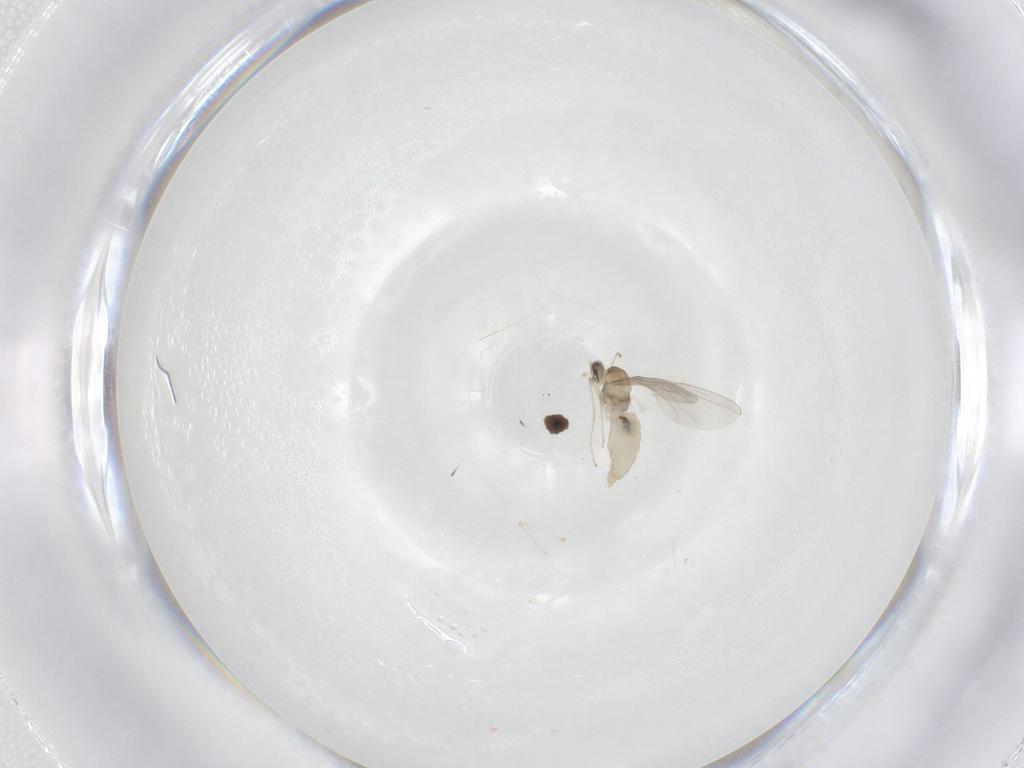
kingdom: Animalia
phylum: Arthropoda
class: Insecta
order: Diptera
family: Cecidomyiidae
